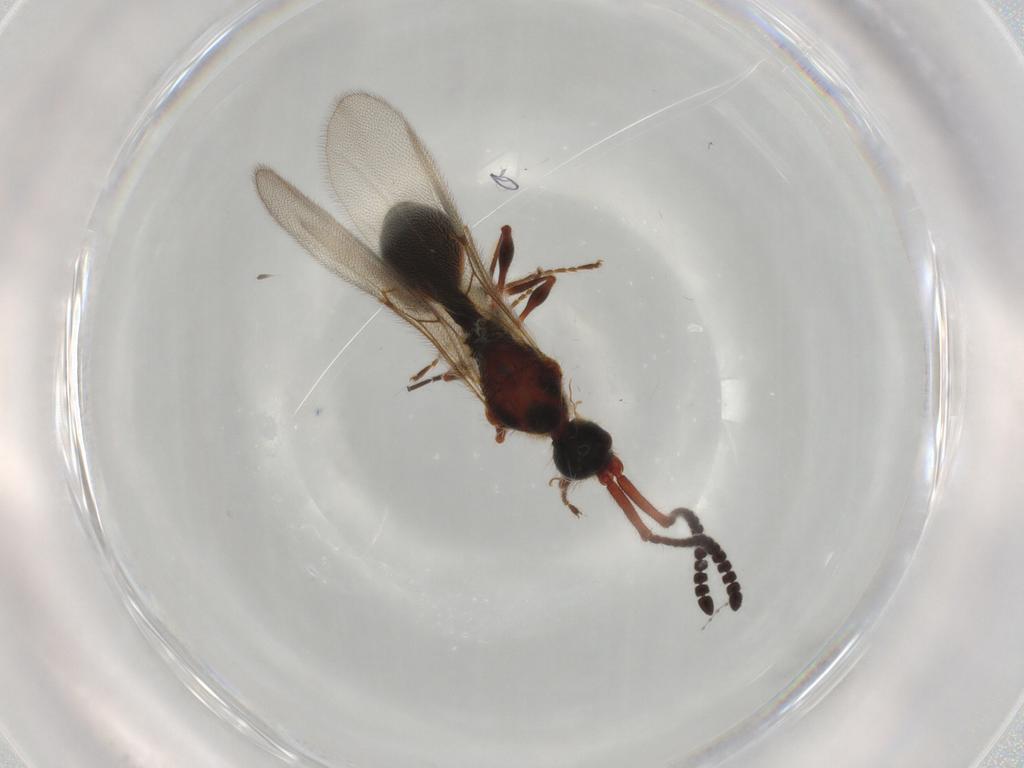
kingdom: Animalia
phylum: Arthropoda
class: Insecta
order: Hymenoptera
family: Diapriidae
